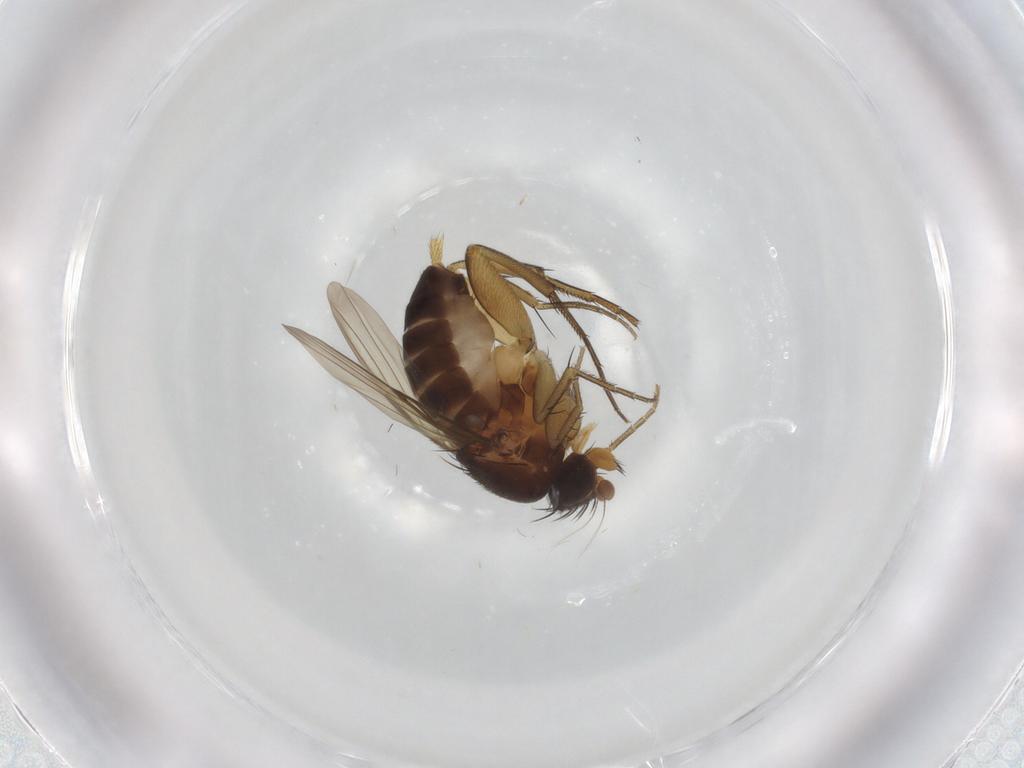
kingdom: Animalia
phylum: Arthropoda
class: Insecta
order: Diptera
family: Phoridae
